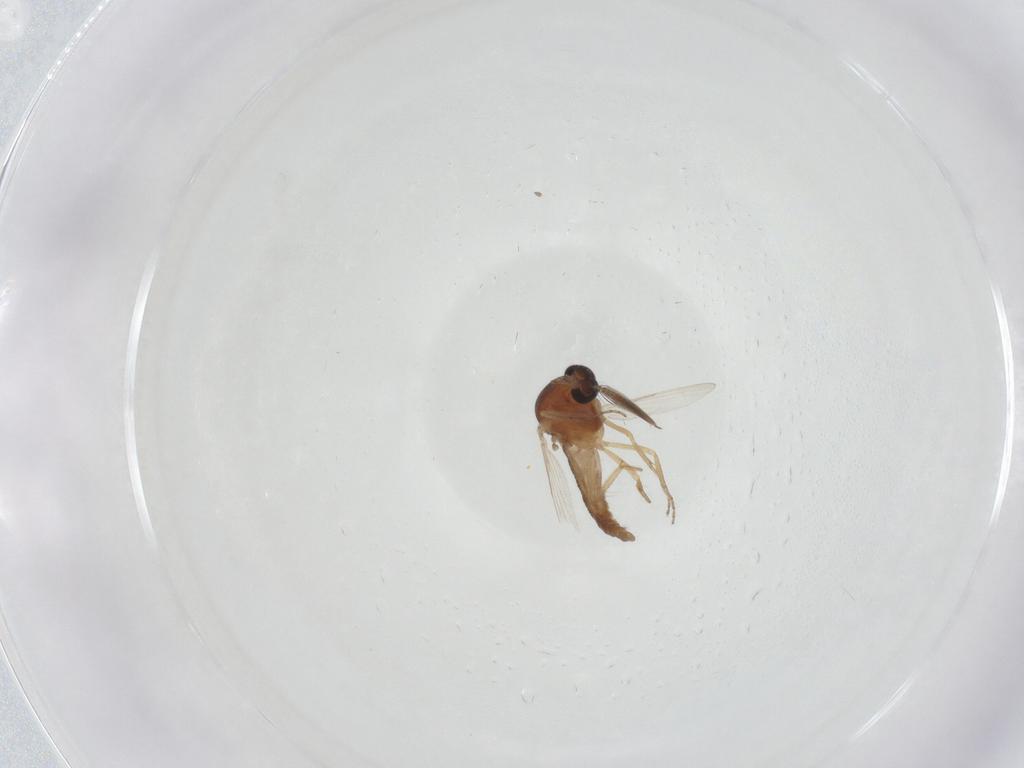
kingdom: Animalia
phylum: Arthropoda
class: Insecta
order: Diptera
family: Ceratopogonidae
